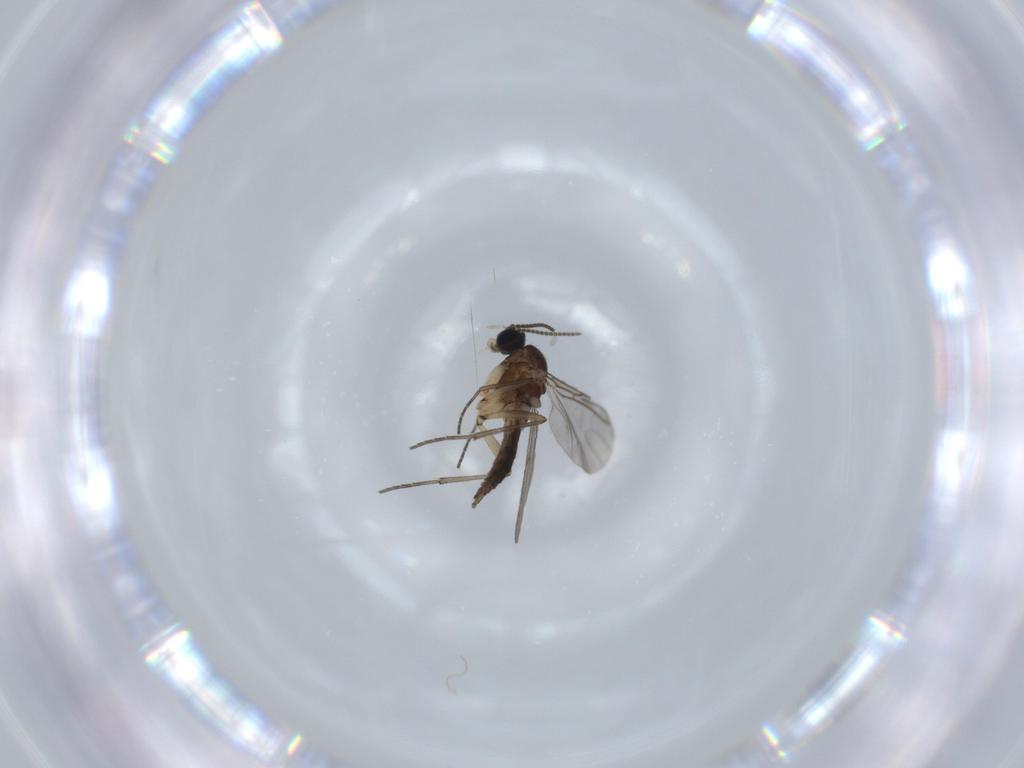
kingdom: Animalia
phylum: Arthropoda
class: Insecta
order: Diptera
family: Sciaridae
